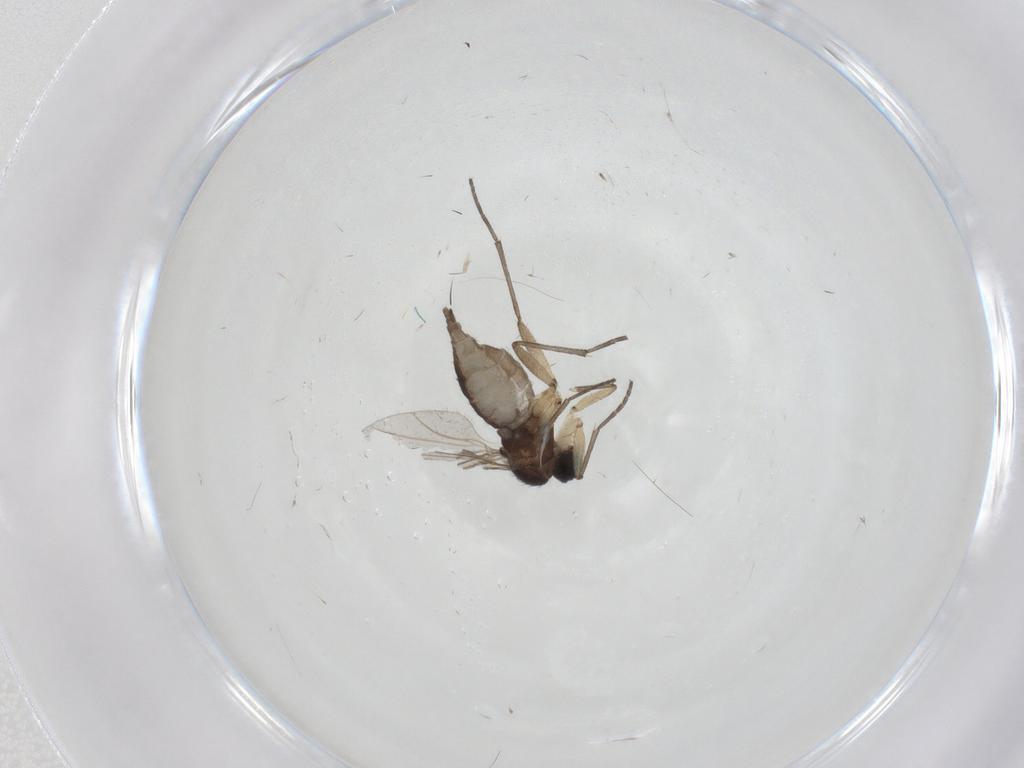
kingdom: Animalia
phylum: Arthropoda
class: Insecta
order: Diptera
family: Sciaridae
